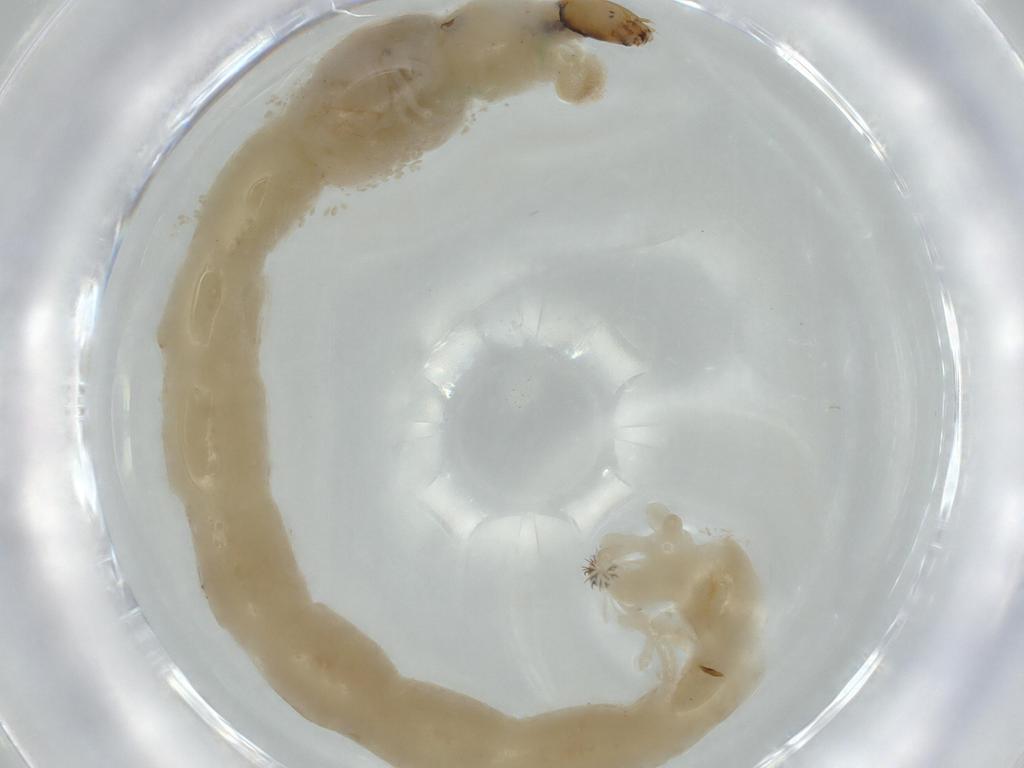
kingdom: Animalia
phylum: Arthropoda
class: Insecta
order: Diptera
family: Chironomidae
